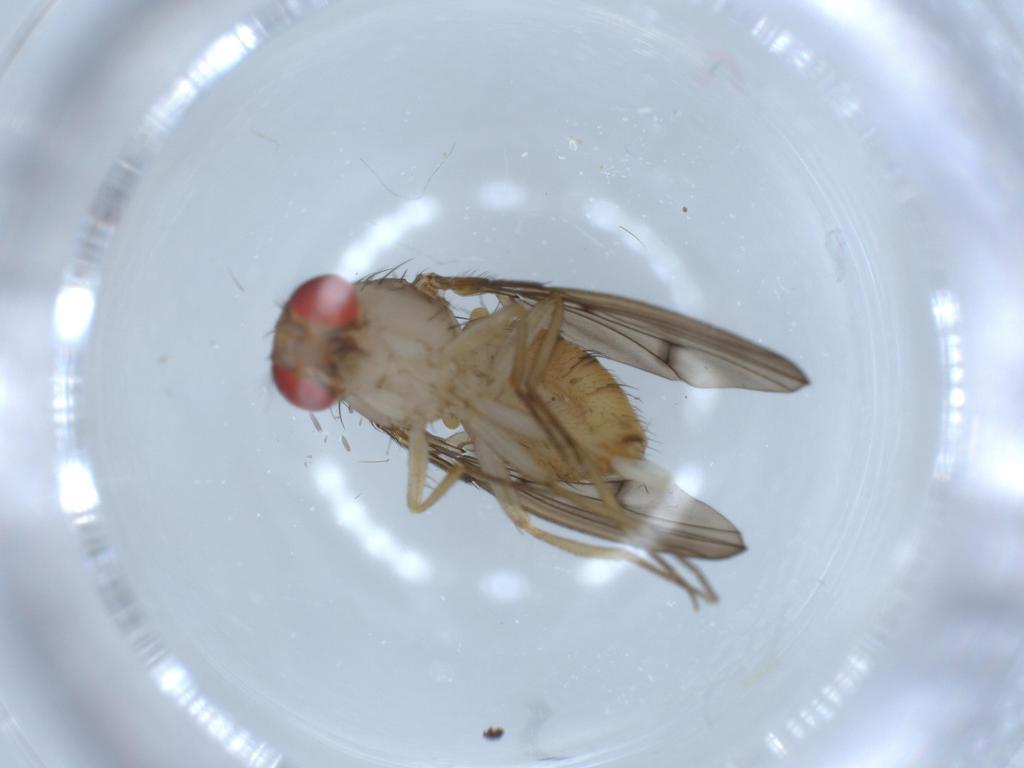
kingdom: Animalia
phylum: Arthropoda
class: Insecta
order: Diptera
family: Drosophilidae
